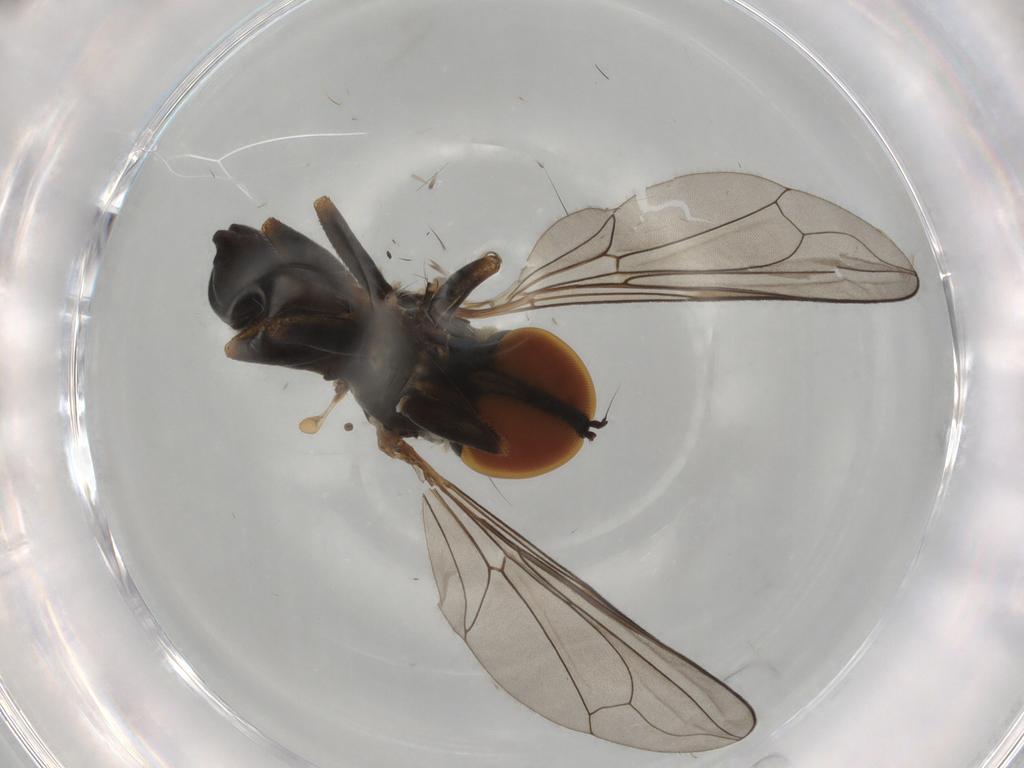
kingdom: Animalia
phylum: Arthropoda
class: Insecta
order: Diptera
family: Pipunculidae
